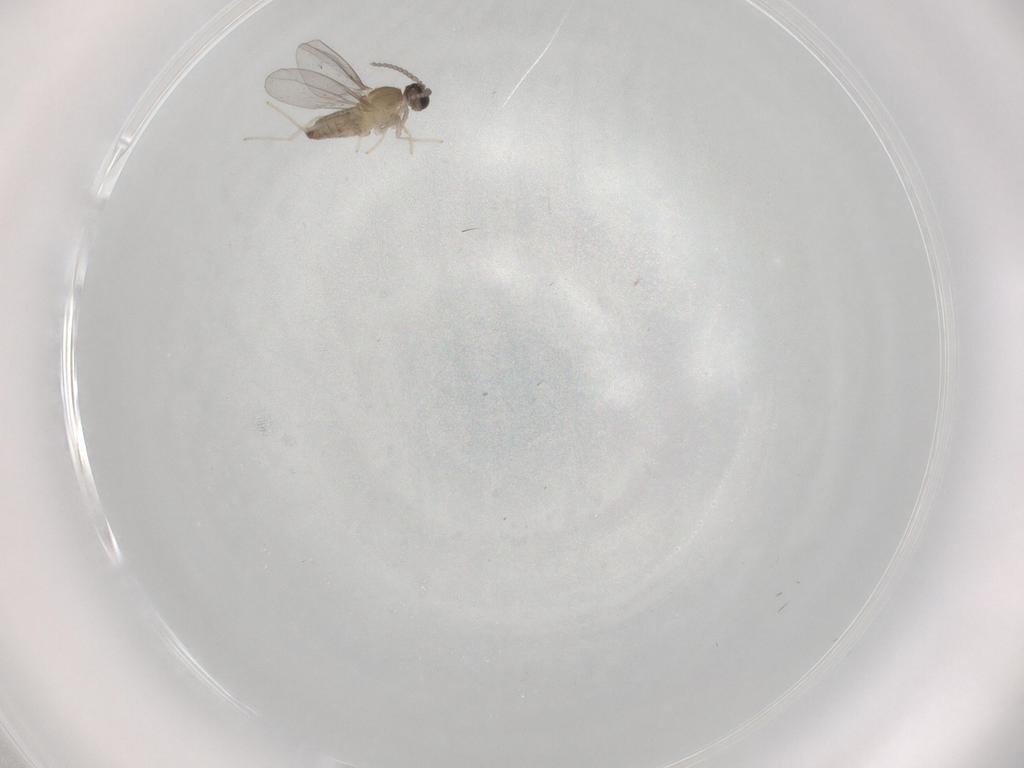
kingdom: Animalia
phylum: Arthropoda
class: Insecta
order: Diptera
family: Cecidomyiidae
